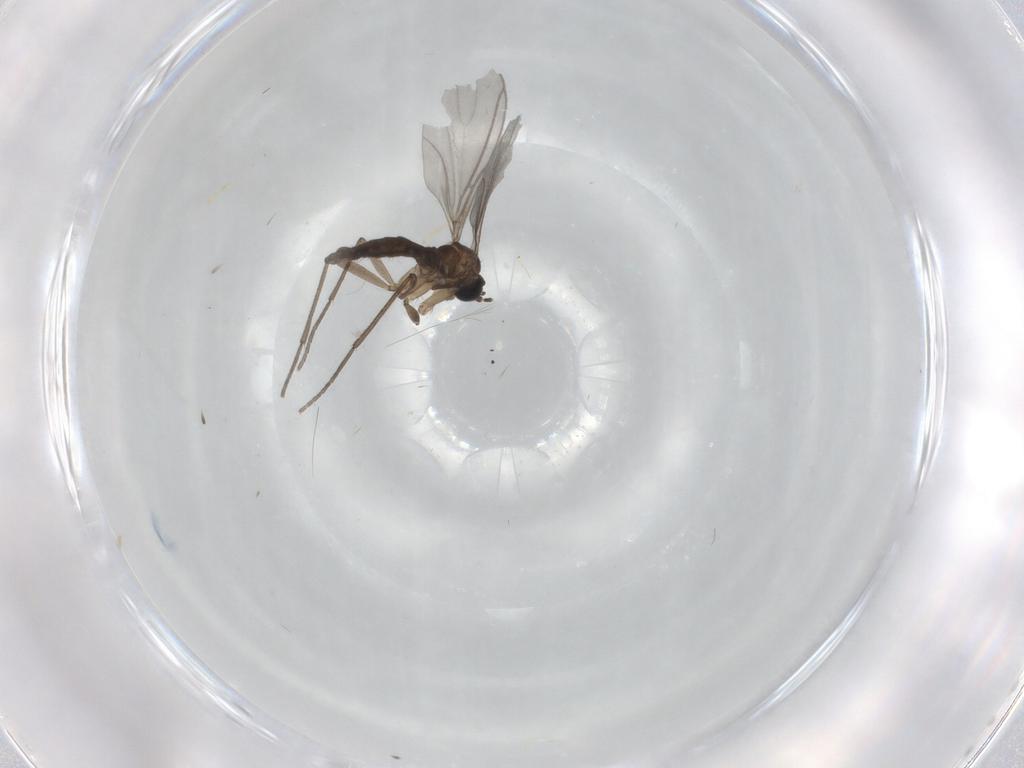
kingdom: Animalia
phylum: Arthropoda
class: Insecta
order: Diptera
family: Sciaridae
